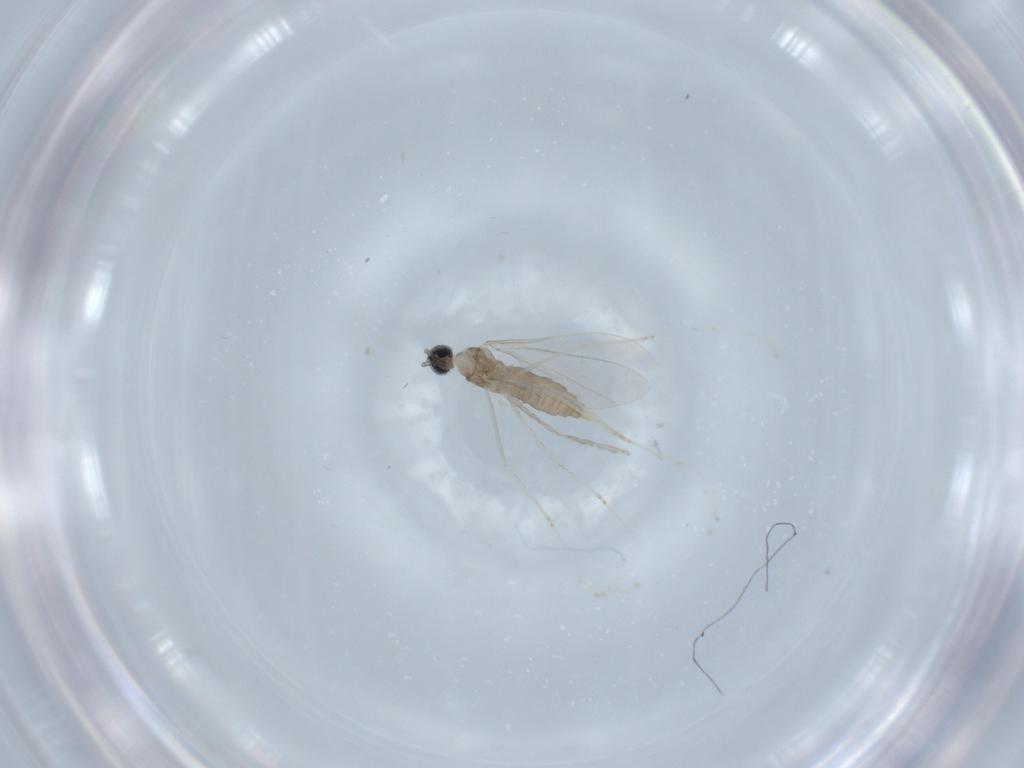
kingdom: Animalia
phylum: Arthropoda
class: Insecta
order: Diptera
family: Cecidomyiidae
